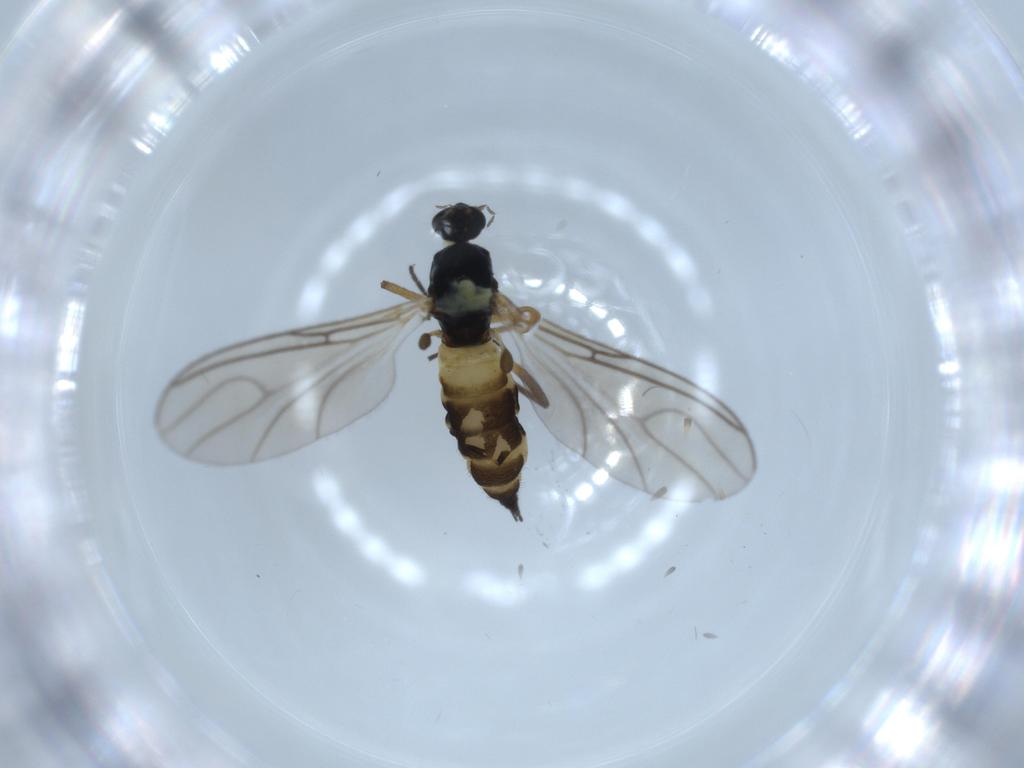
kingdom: Animalia
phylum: Arthropoda
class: Insecta
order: Diptera
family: Sciaridae
